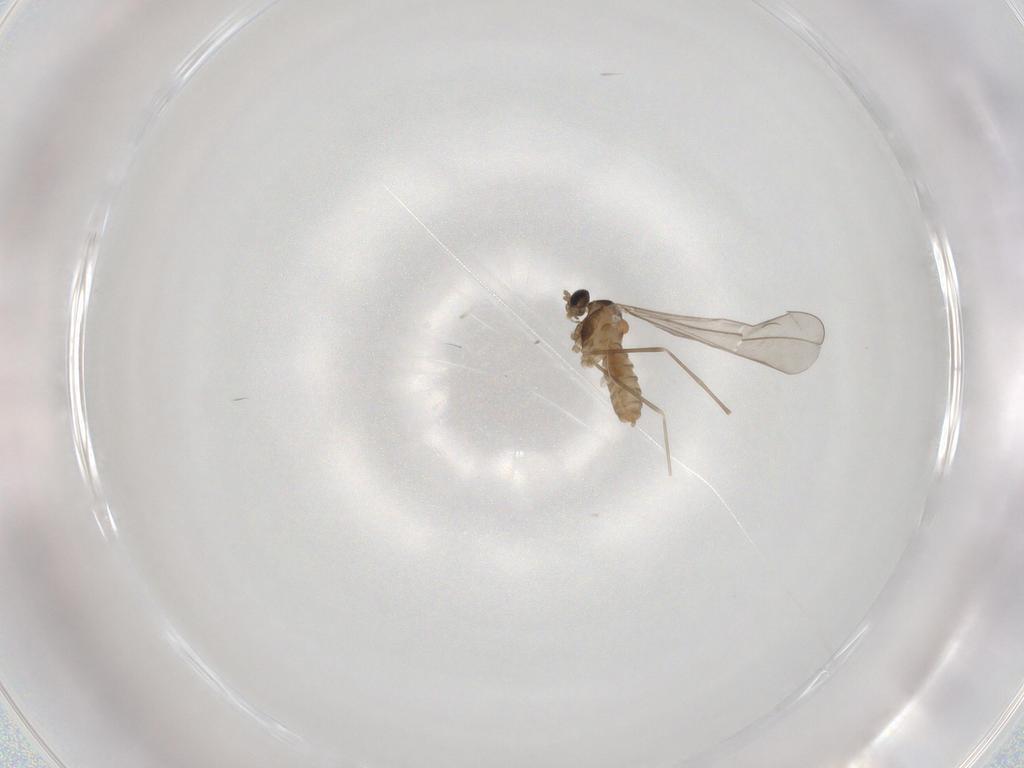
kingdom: Animalia
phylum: Arthropoda
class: Insecta
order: Diptera
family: Cecidomyiidae
